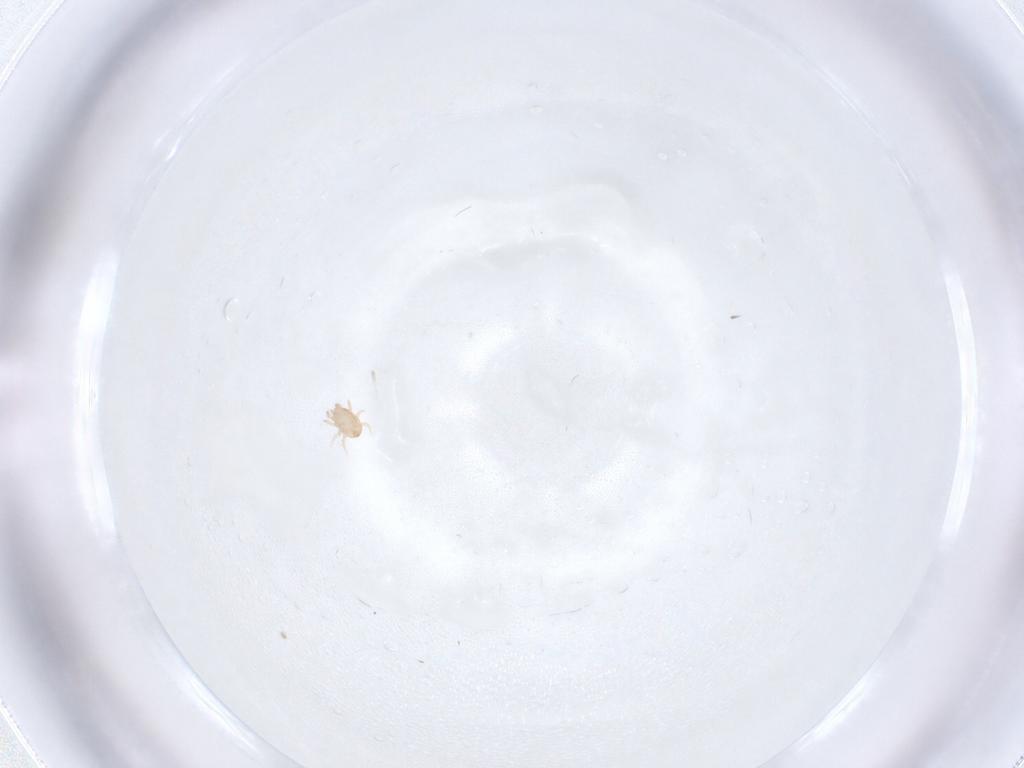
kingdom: Animalia
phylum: Arthropoda
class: Arachnida
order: Mesostigmata
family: Ascidae
